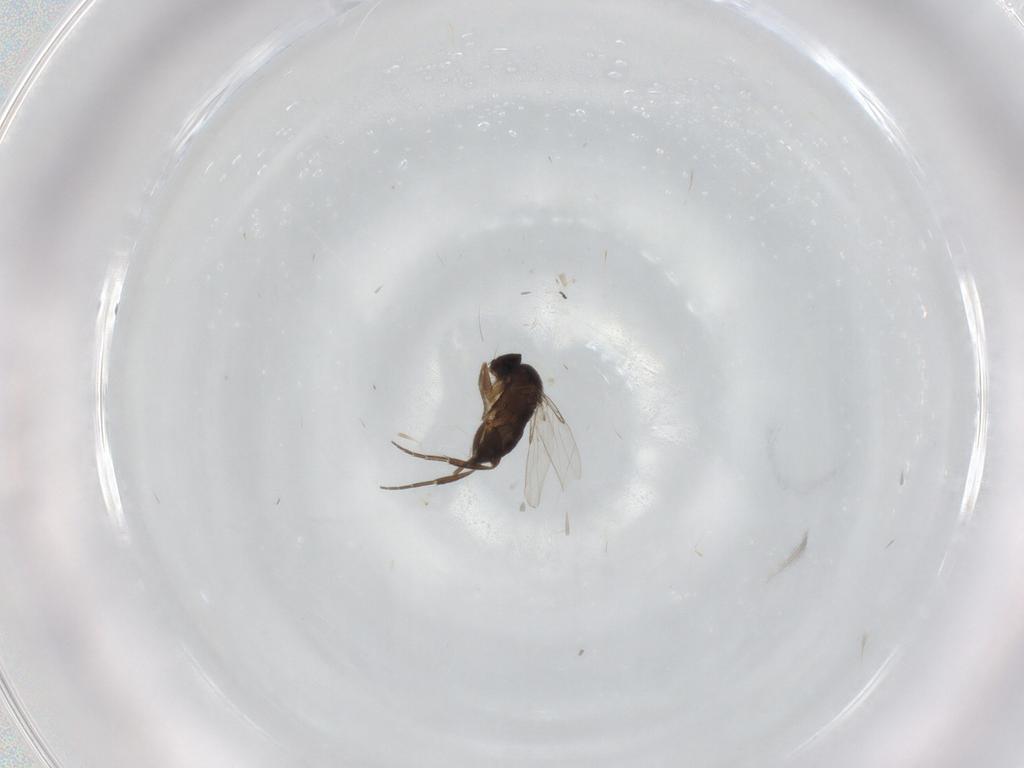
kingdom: Animalia
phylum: Arthropoda
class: Insecta
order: Diptera
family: Phoridae
